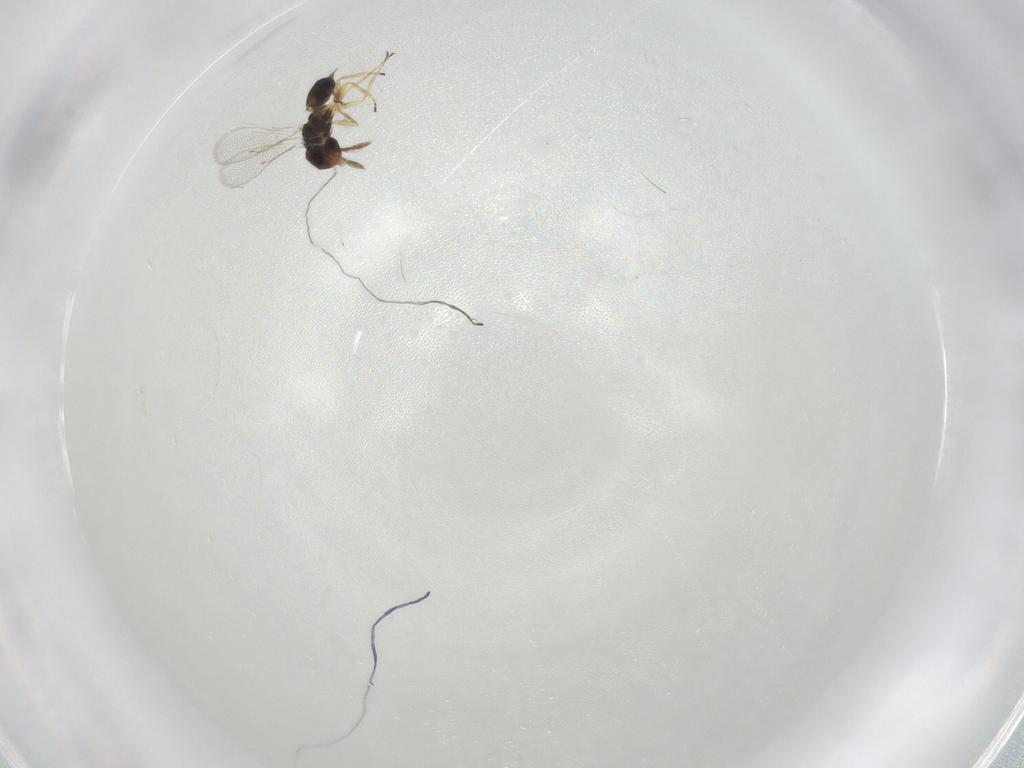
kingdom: Animalia
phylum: Arthropoda
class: Insecta
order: Hymenoptera
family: Eulophidae
